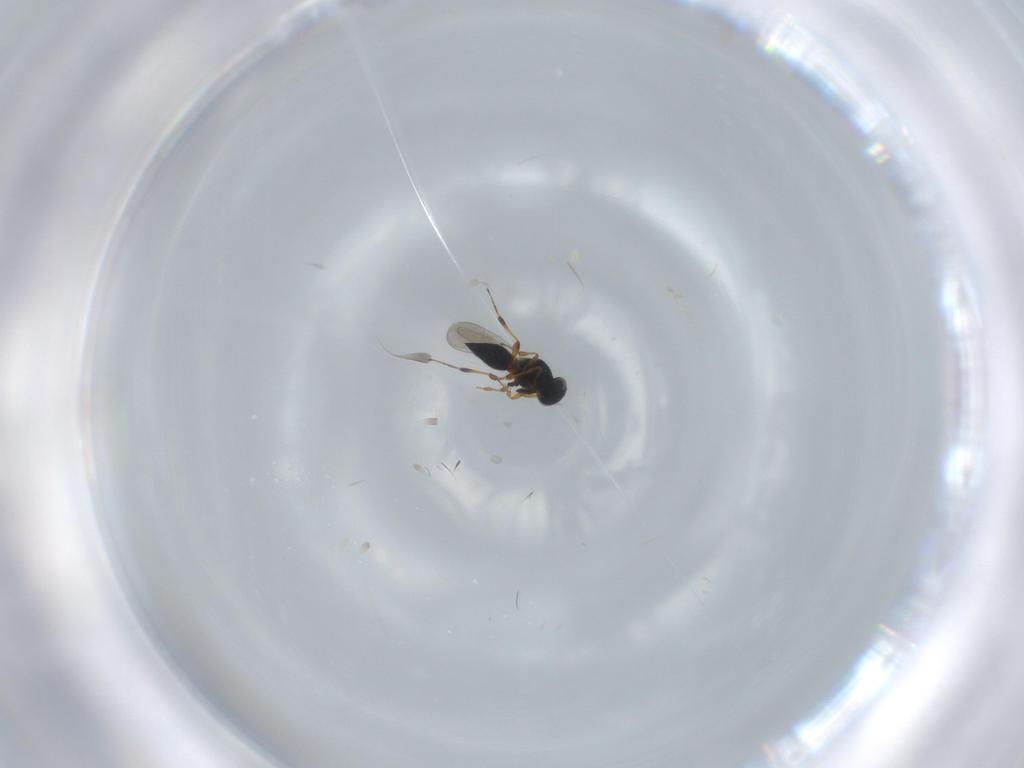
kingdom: Animalia
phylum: Arthropoda
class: Insecta
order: Hymenoptera
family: Platygastridae
